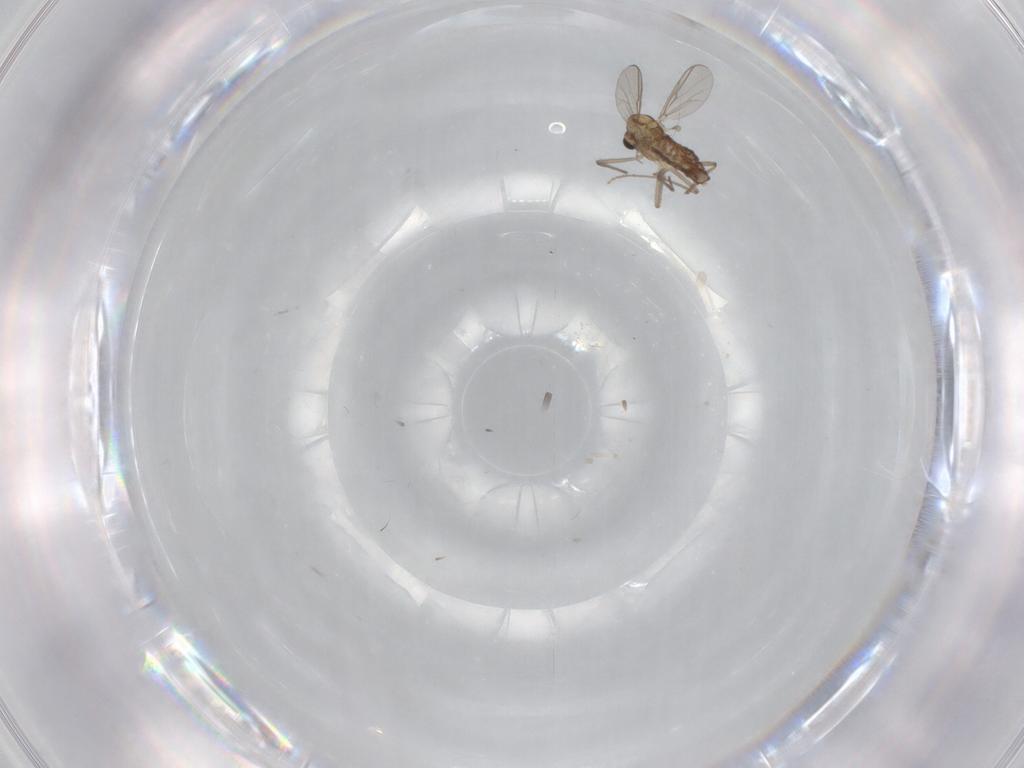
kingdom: Animalia
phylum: Arthropoda
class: Insecta
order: Diptera
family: Chironomidae
